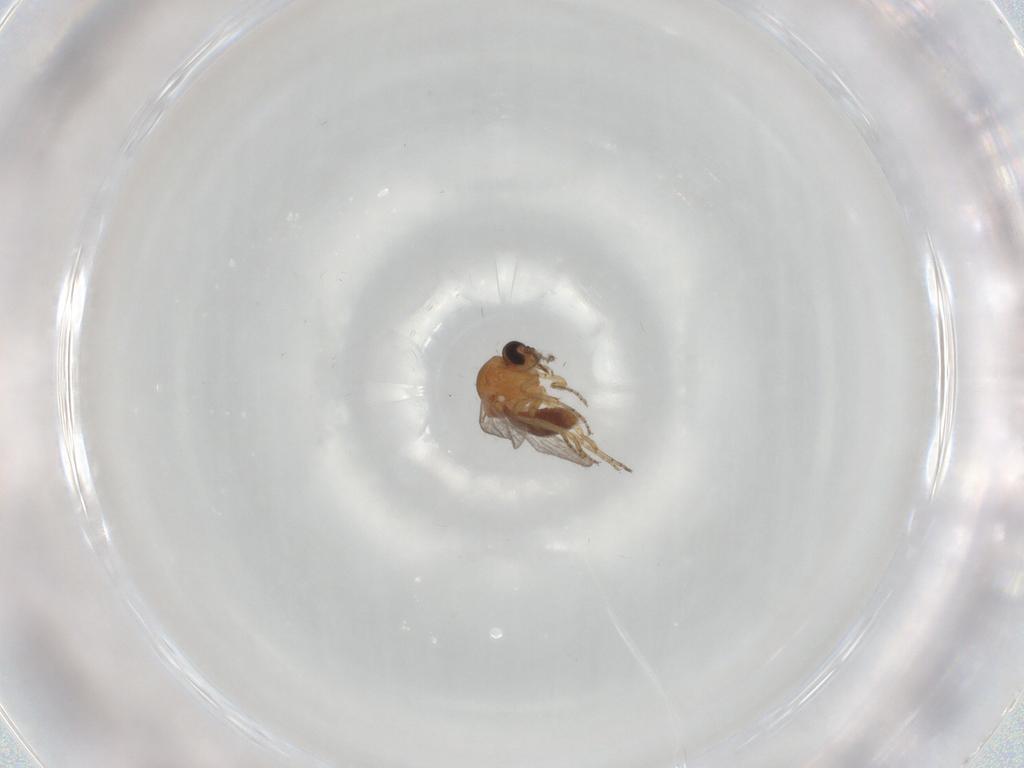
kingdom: Animalia
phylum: Arthropoda
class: Insecta
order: Diptera
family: Ceratopogonidae
